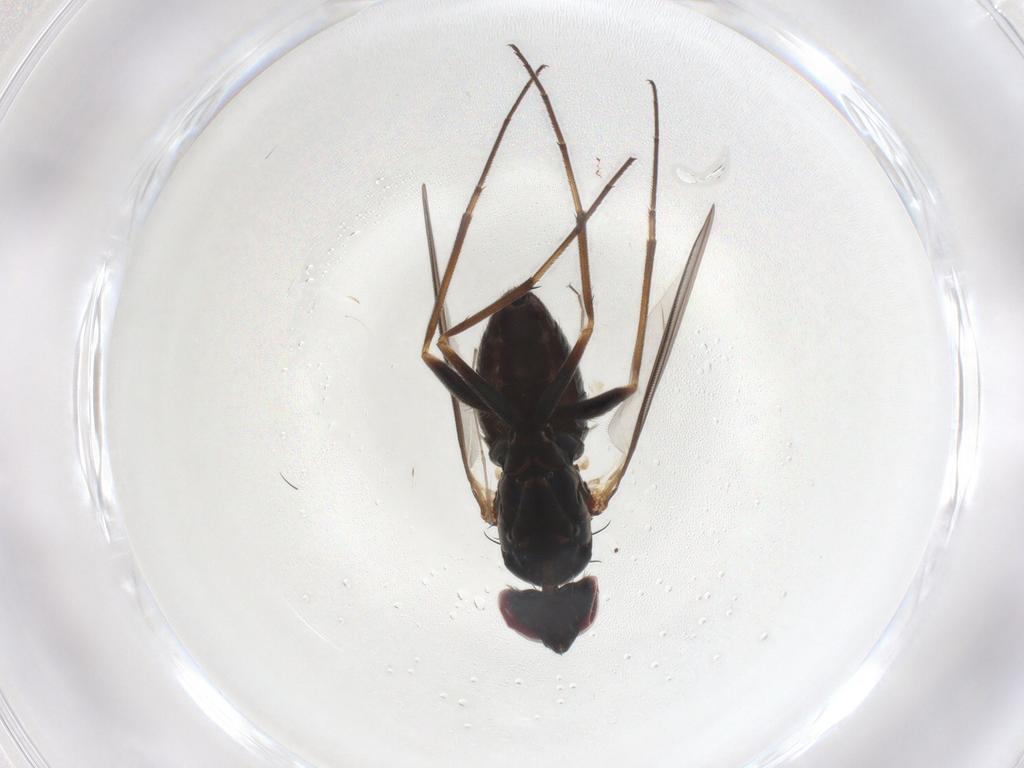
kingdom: Animalia
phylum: Arthropoda
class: Insecta
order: Diptera
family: Dolichopodidae
